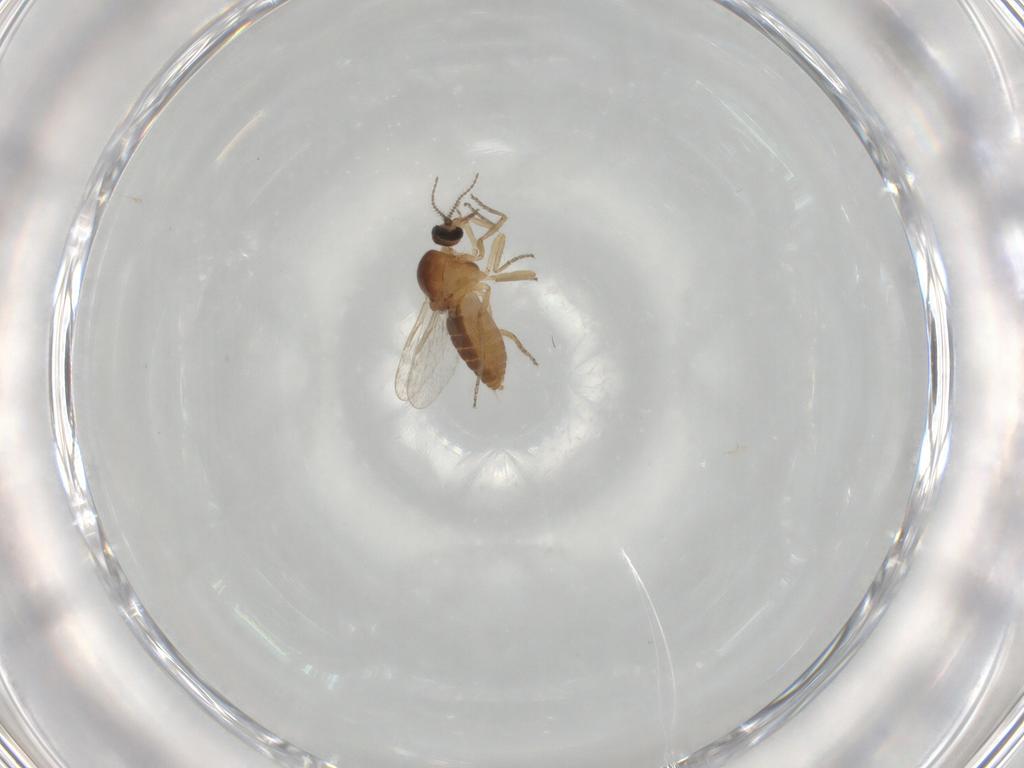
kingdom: Animalia
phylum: Arthropoda
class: Insecta
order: Blattodea
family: Blaberidae
